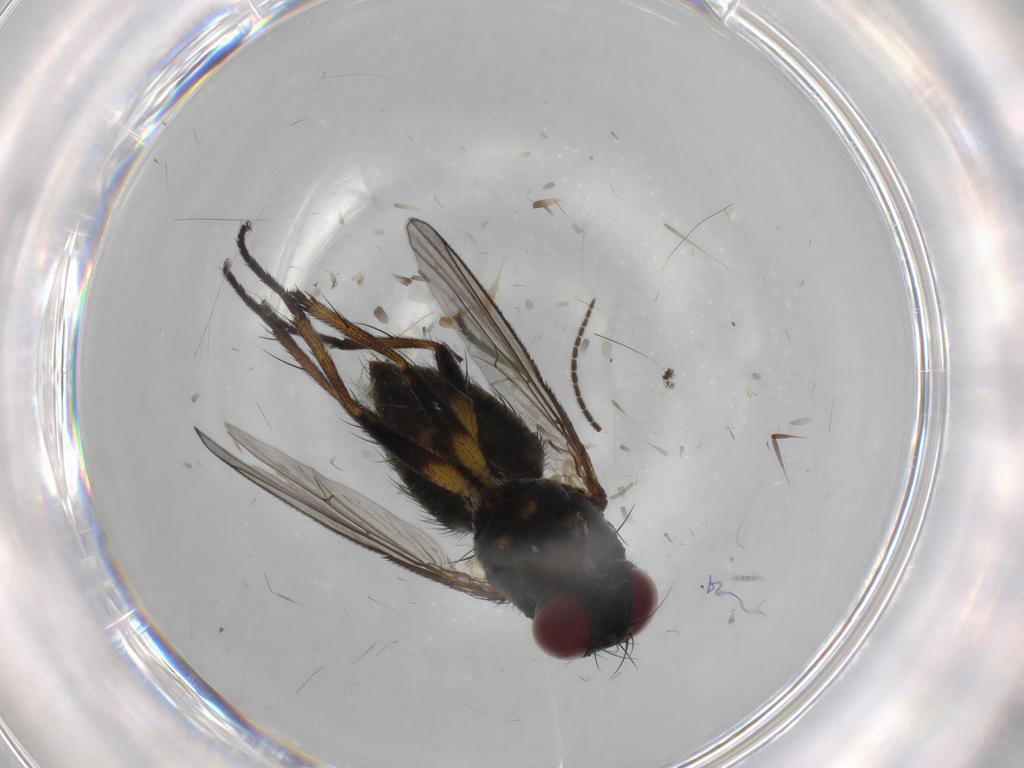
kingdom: Animalia
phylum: Arthropoda
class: Insecta
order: Diptera
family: Muscidae
